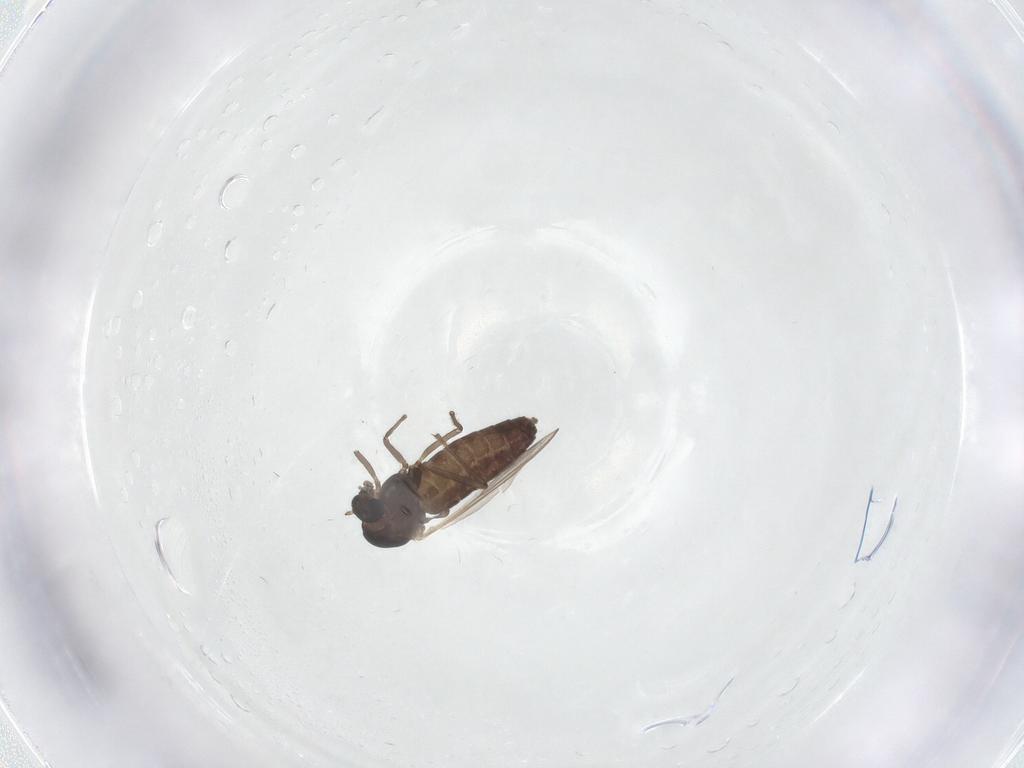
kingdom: Animalia
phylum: Arthropoda
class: Insecta
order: Diptera
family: Chironomidae
